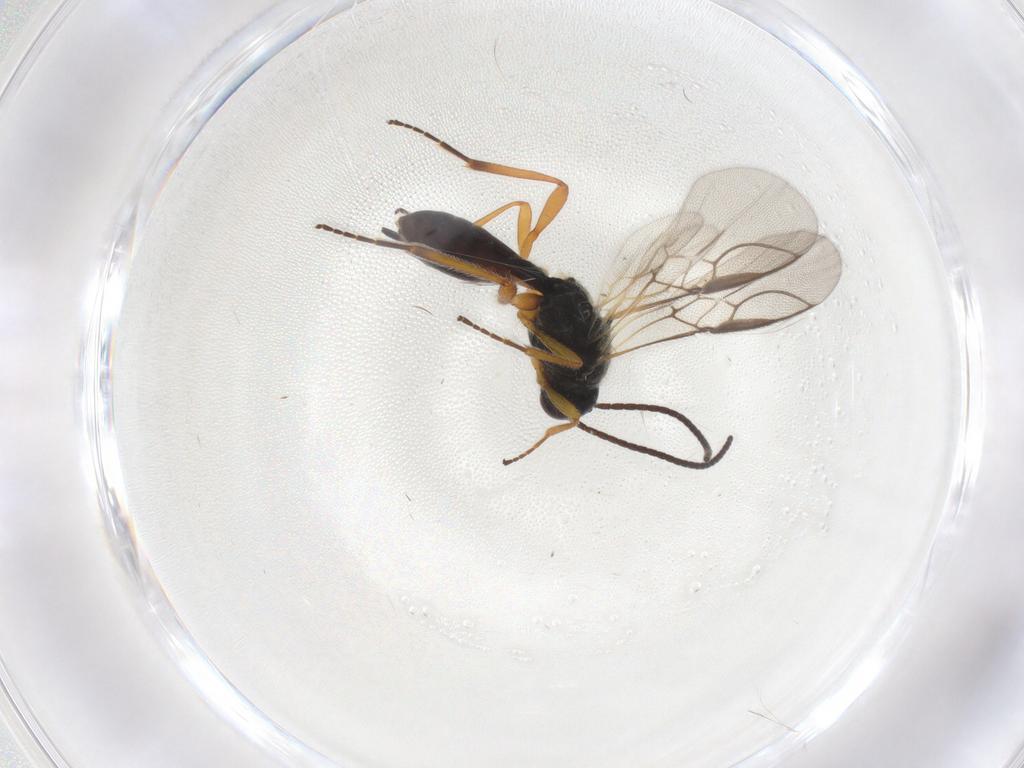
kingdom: Animalia
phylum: Arthropoda
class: Insecta
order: Hymenoptera
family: Braconidae
